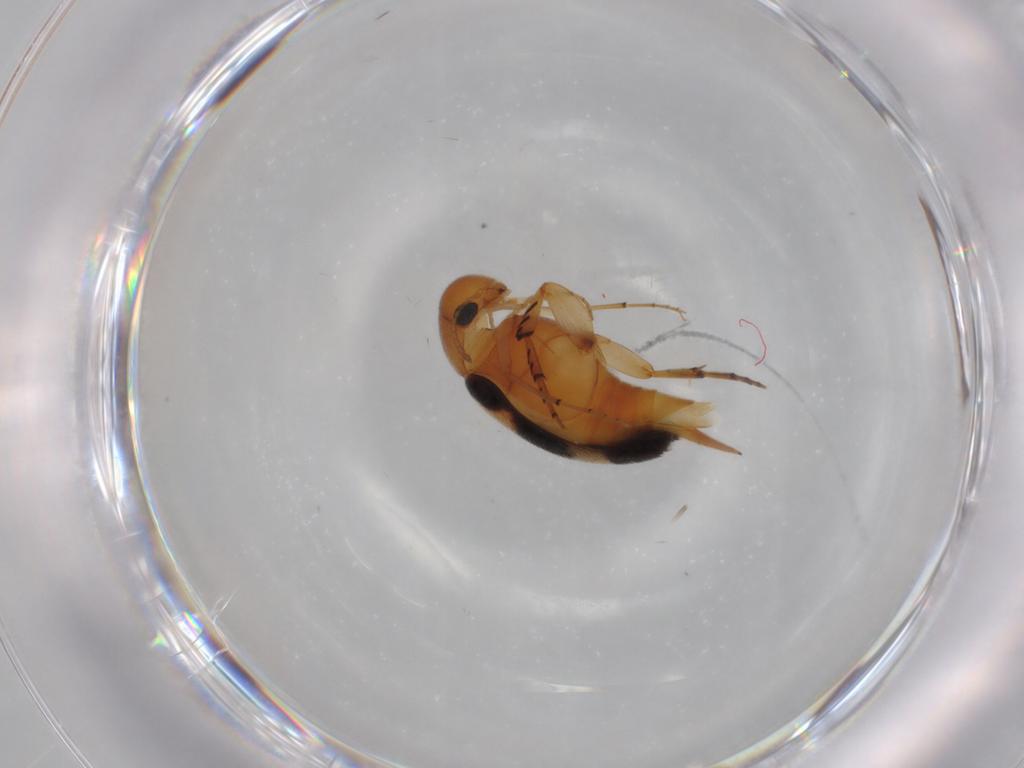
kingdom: Animalia
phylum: Arthropoda
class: Insecta
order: Coleoptera
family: Mordellidae
